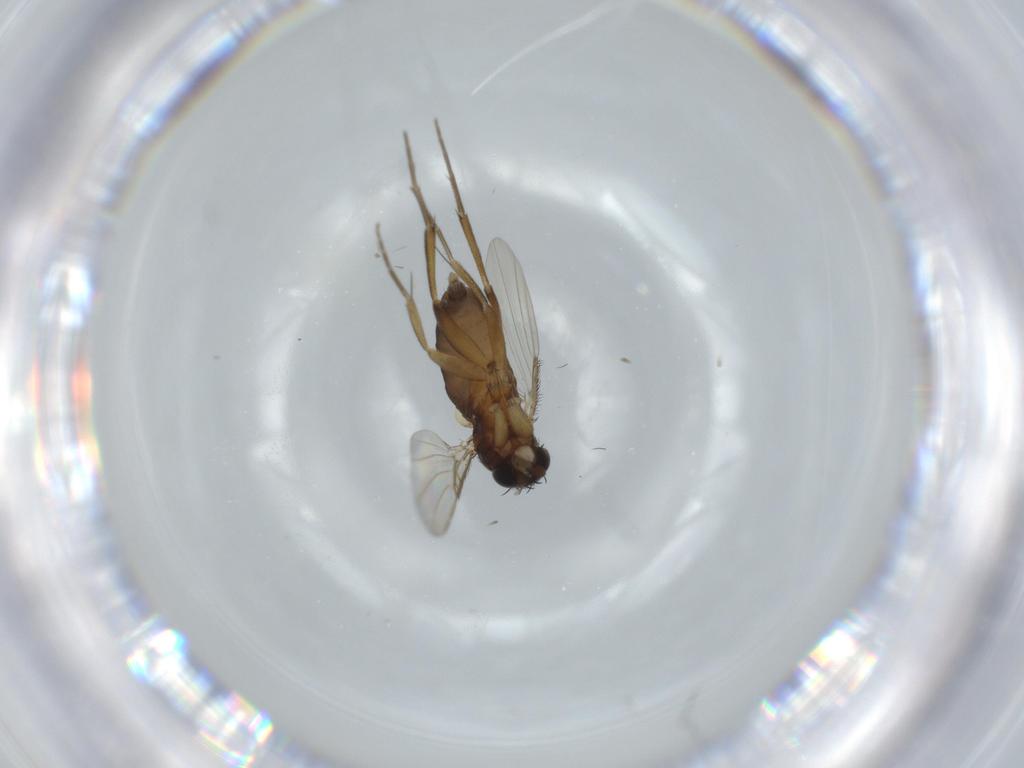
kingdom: Animalia
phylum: Arthropoda
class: Insecta
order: Diptera
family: Phoridae
